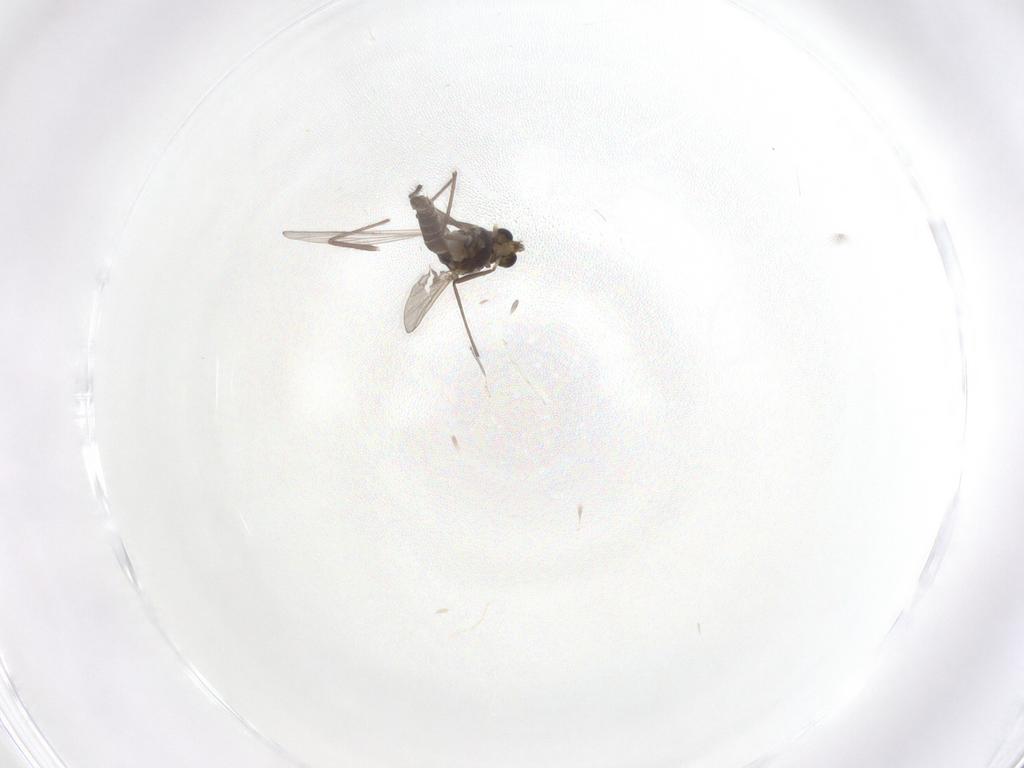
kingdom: Animalia
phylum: Arthropoda
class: Insecta
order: Diptera
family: Chironomidae
